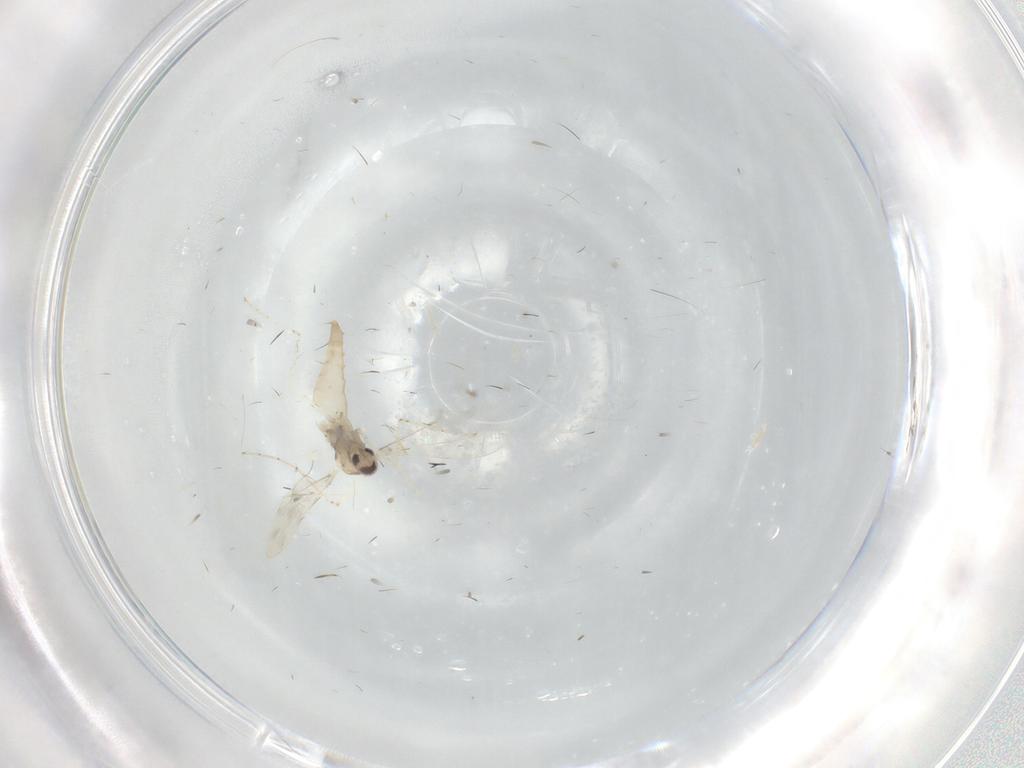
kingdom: Animalia
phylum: Arthropoda
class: Insecta
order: Diptera
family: Cecidomyiidae
